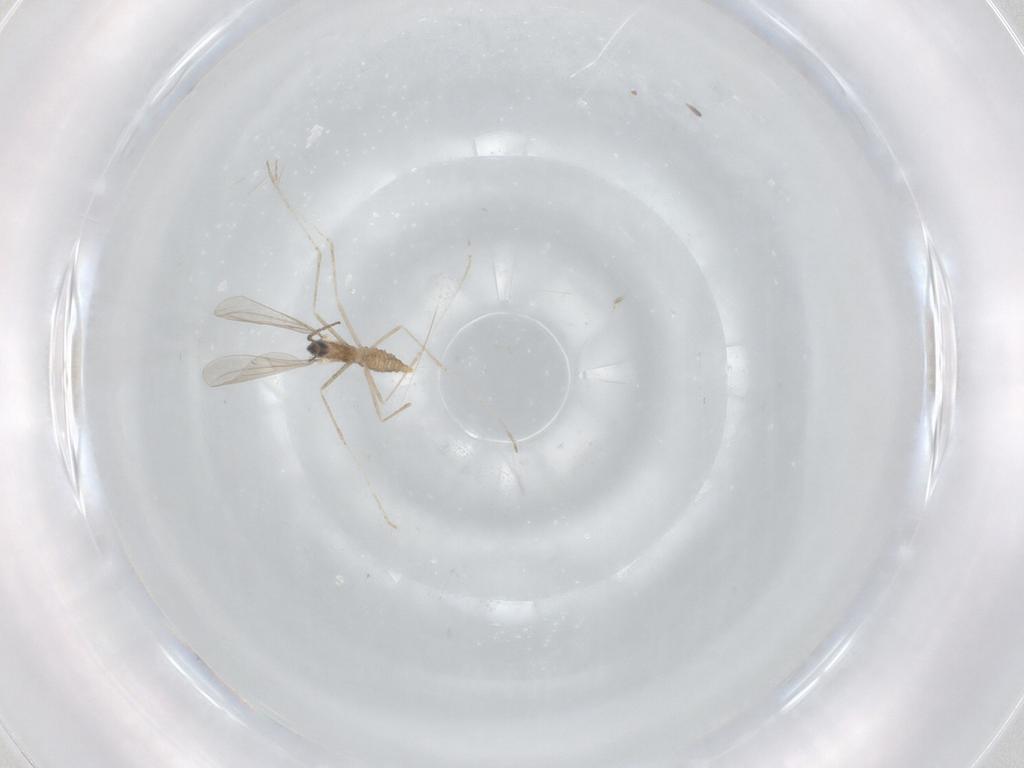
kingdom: Animalia
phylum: Arthropoda
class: Insecta
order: Diptera
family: Cecidomyiidae
